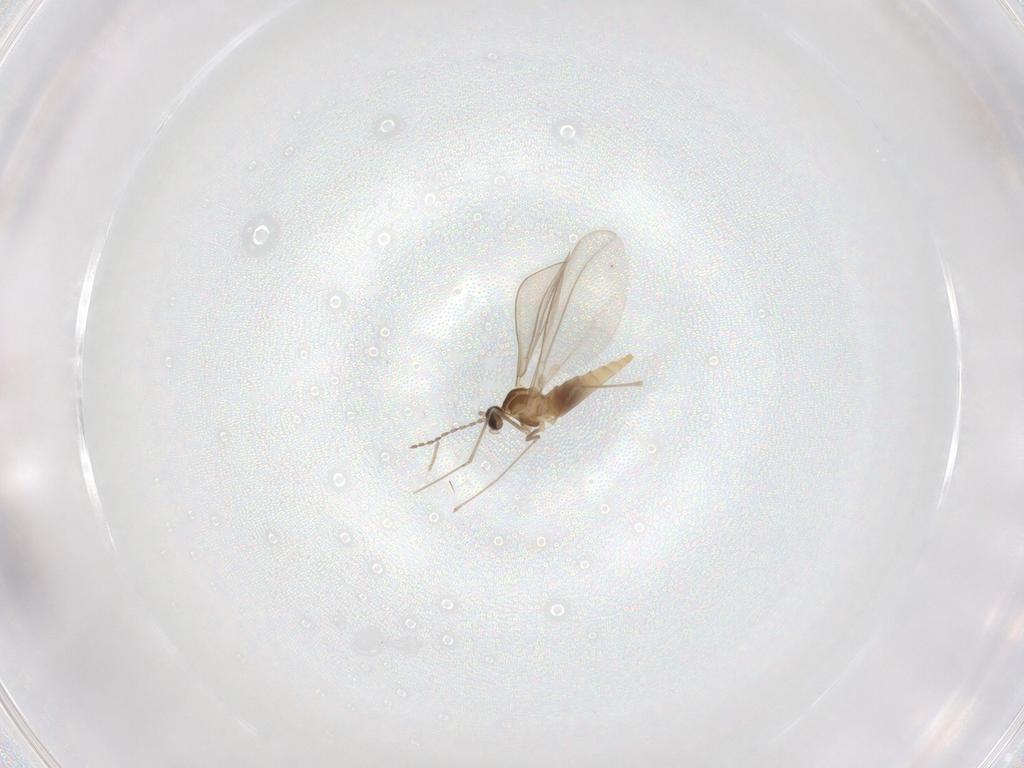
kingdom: Animalia
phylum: Arthropoda
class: Insecta
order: Diptera
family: Cecidomyiidae
